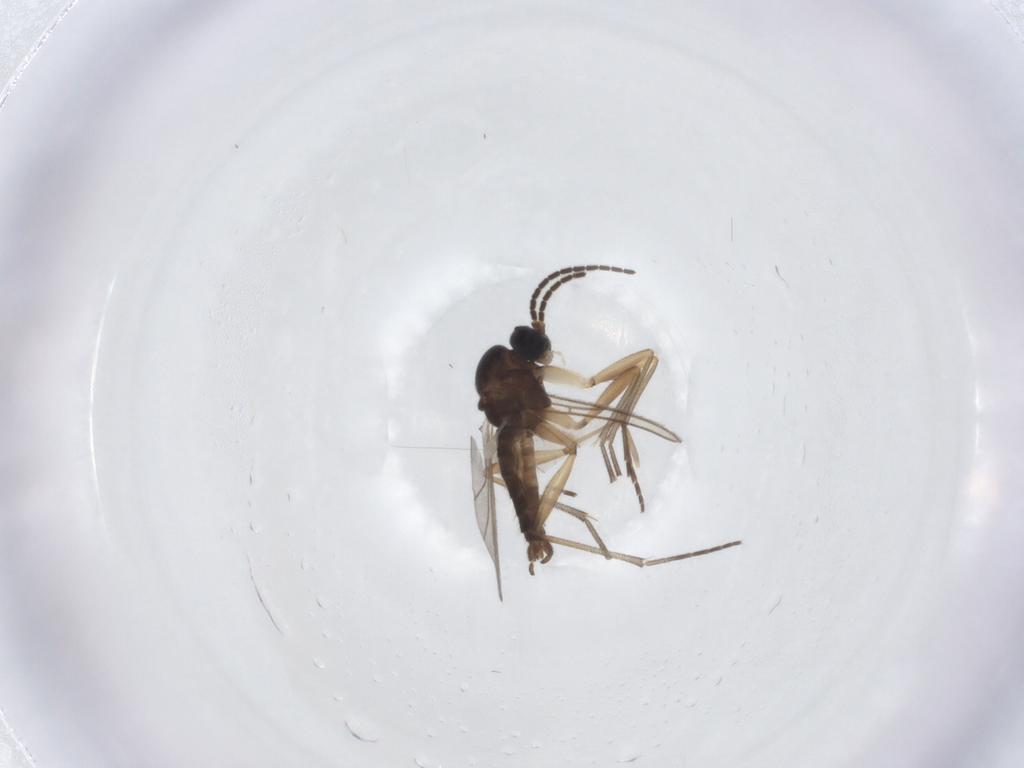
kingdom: Animalia
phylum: Arthropoda
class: Insecta
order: Diptera
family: Sciaridae
